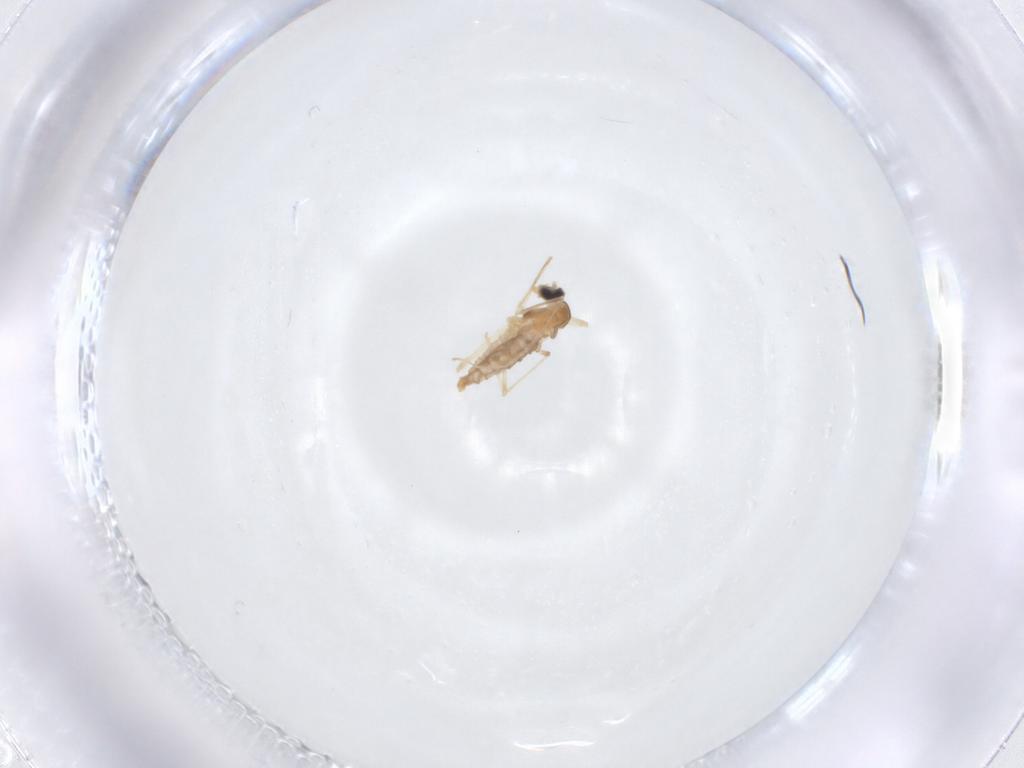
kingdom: Animalia
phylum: Arthropoda
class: Insecta
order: Diptera
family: Cecidomyiidae
